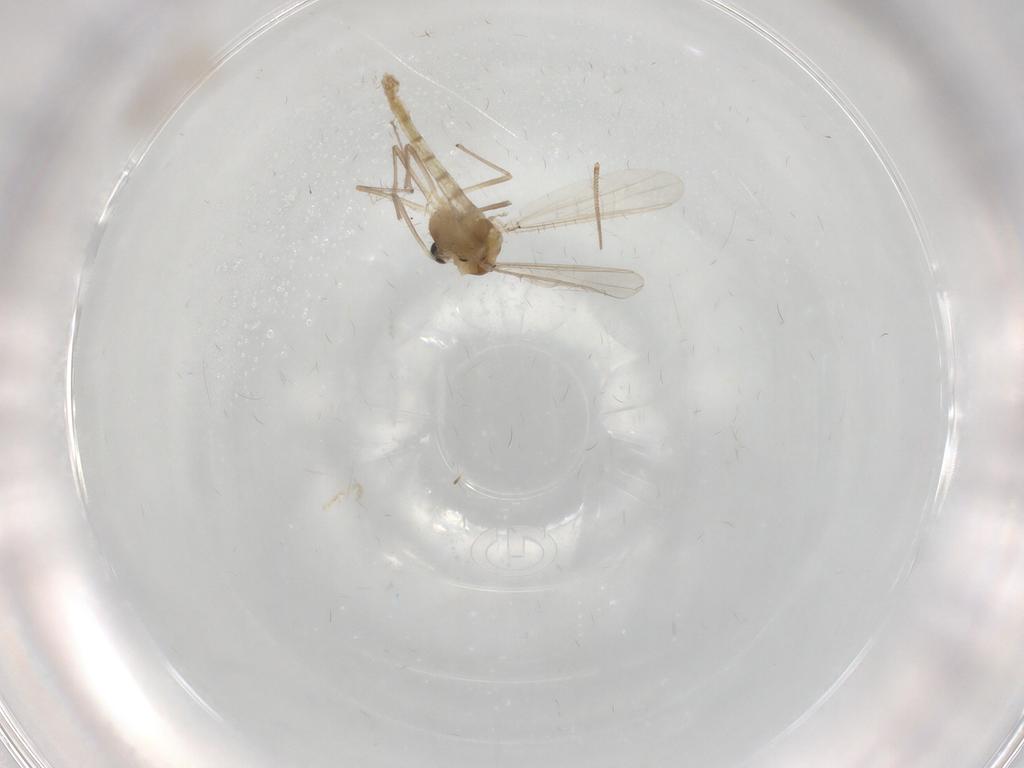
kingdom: Animalia
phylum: Arthropoda
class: Insecta
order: Diptera
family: Chironomidae
